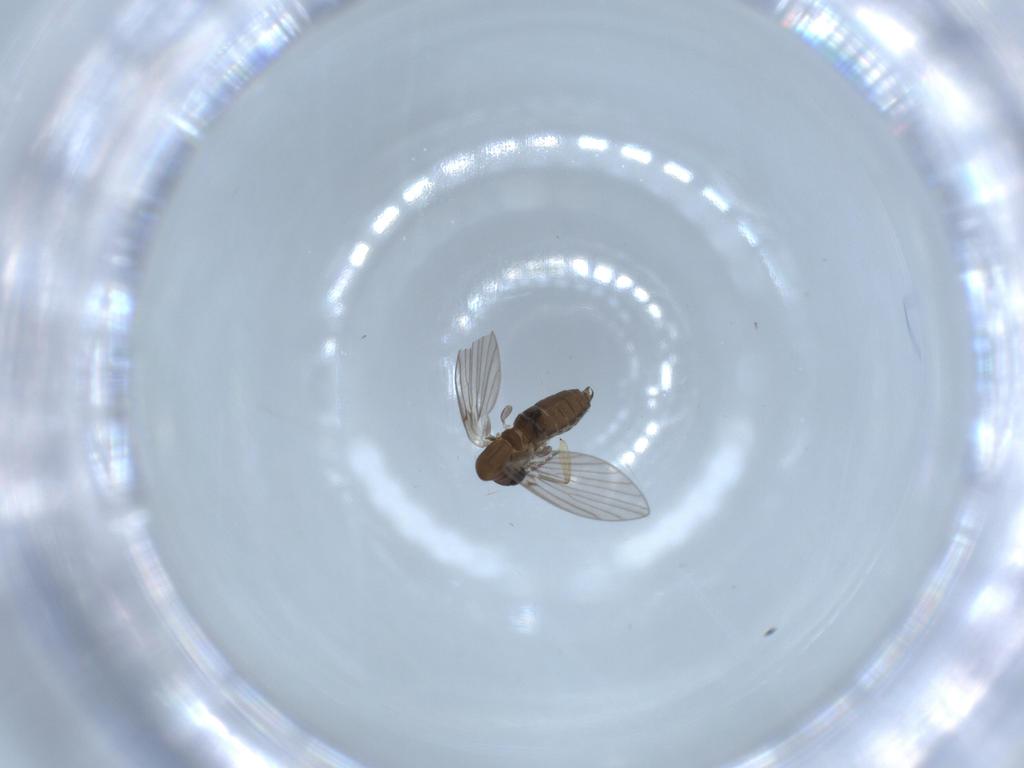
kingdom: Animalia
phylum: Arthropoda
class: Insecta
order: Diptera
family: Psychodidae
